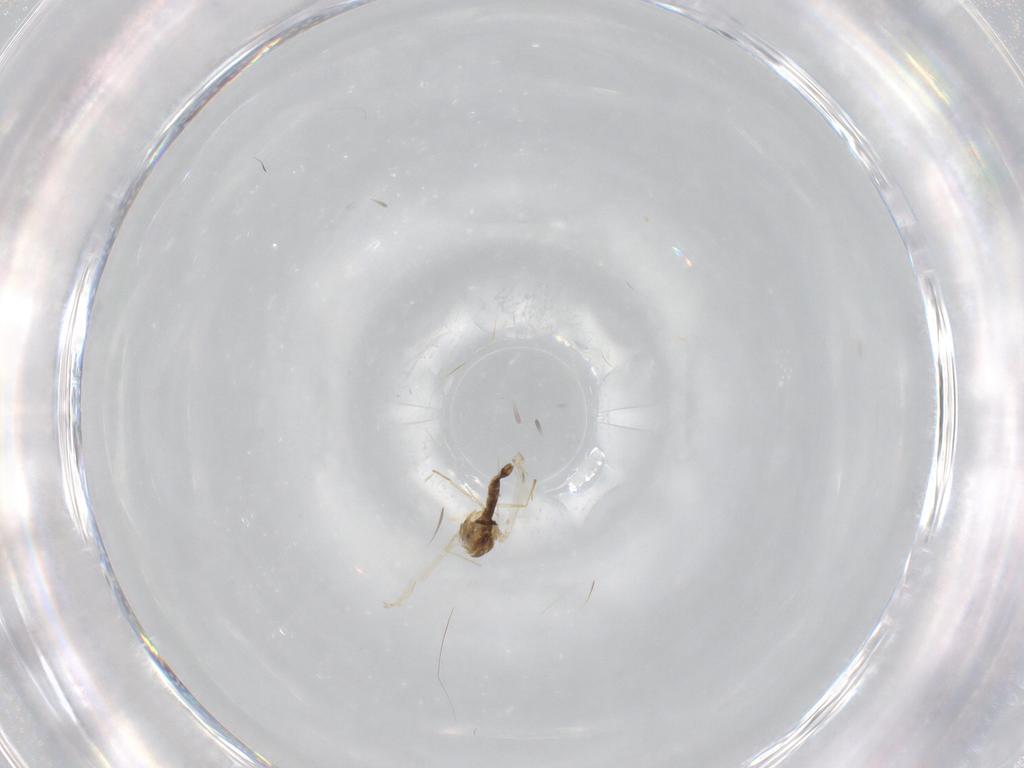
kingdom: Animalia
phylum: Arthropoda
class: Insecta
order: Diptera
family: Chironomidae
